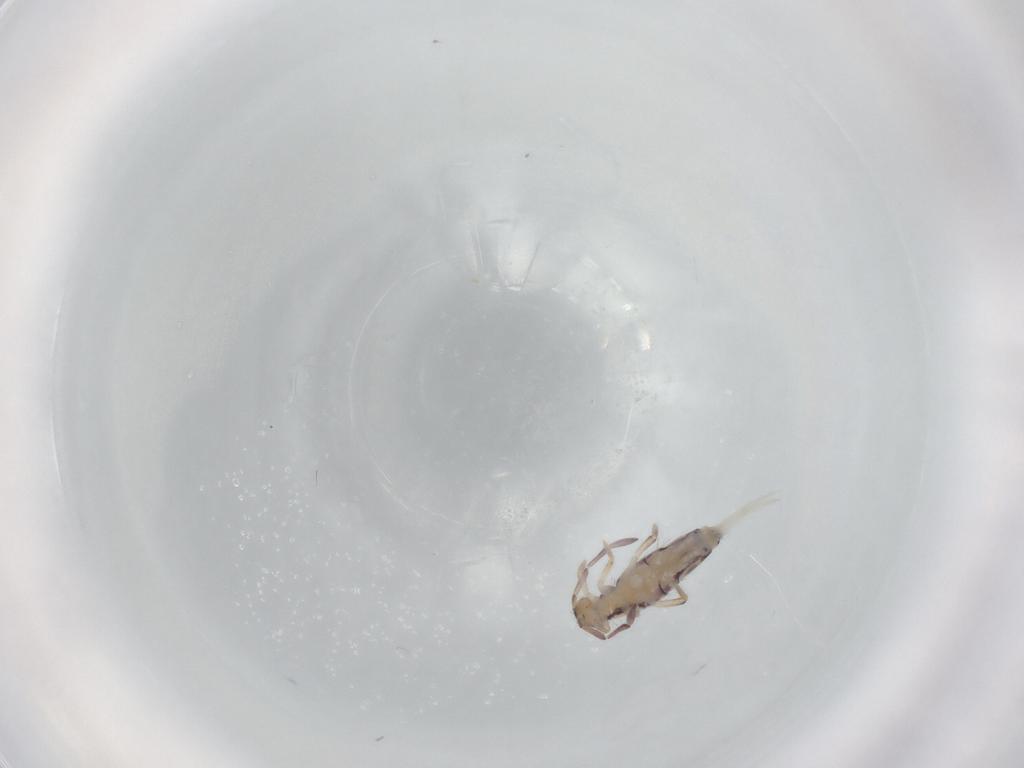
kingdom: Animalia
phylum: Arthropoda
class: Collembola
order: Entomobryomorpha
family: Entomobryidae
